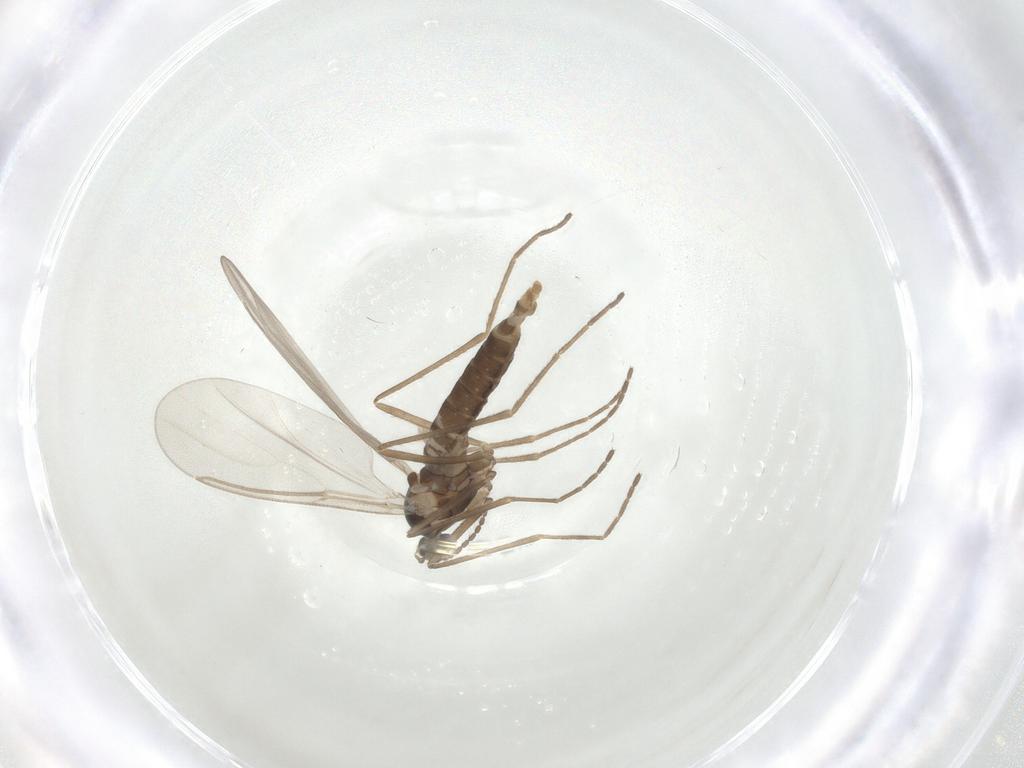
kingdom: Animalia
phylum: Arthropoda
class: Insecta
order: Diptera
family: Cecidomyiidae
